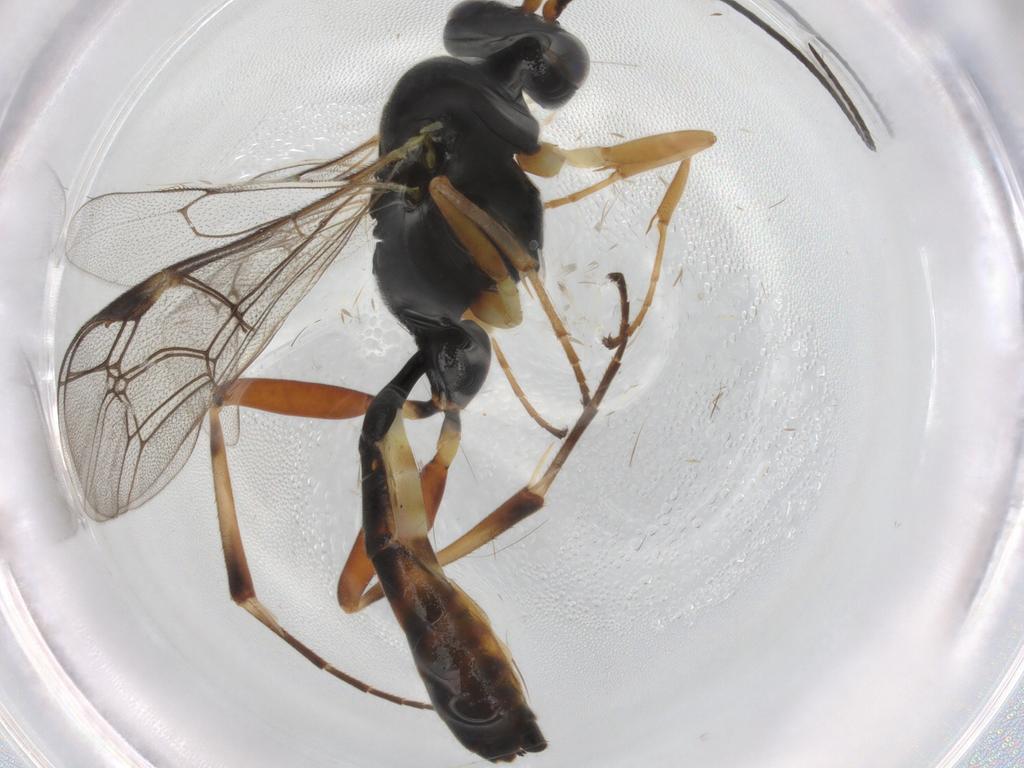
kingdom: Animalia
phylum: Arthropoda
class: Insecta
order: Hymenoptera
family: Ichneumonidae
